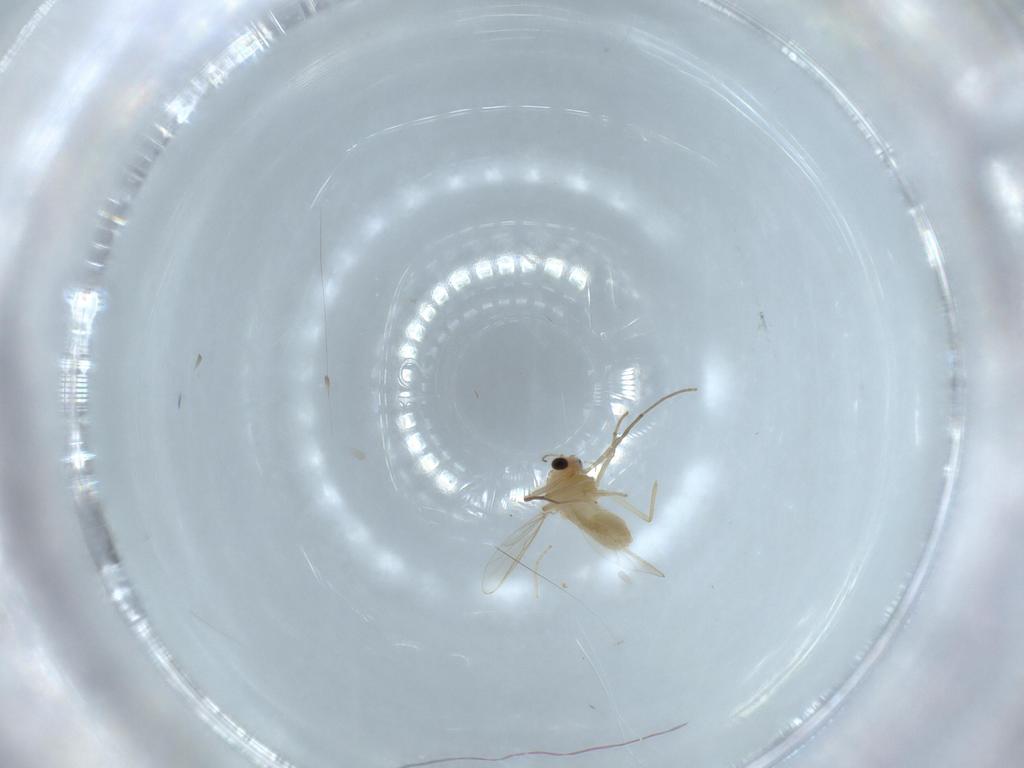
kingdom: Animalia
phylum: Arthropoda
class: Insecta
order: Diptera
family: Chironomidae
